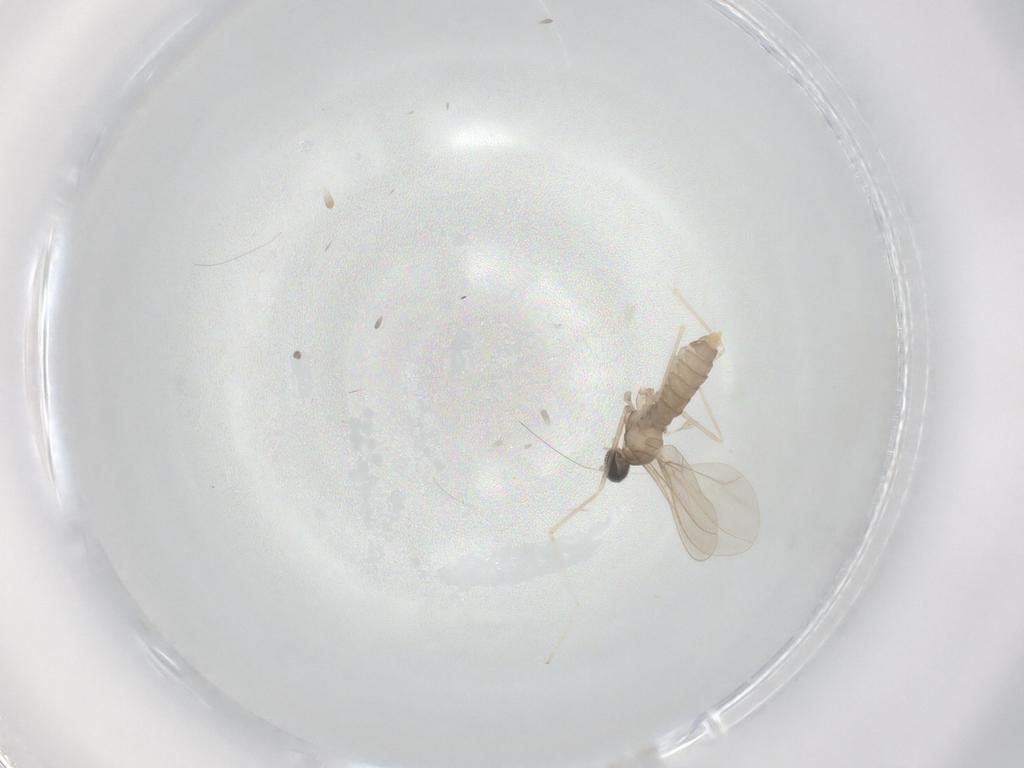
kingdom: Animalia
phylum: Arthropoda
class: Insecta
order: Diptera
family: Cecidomyiidae
